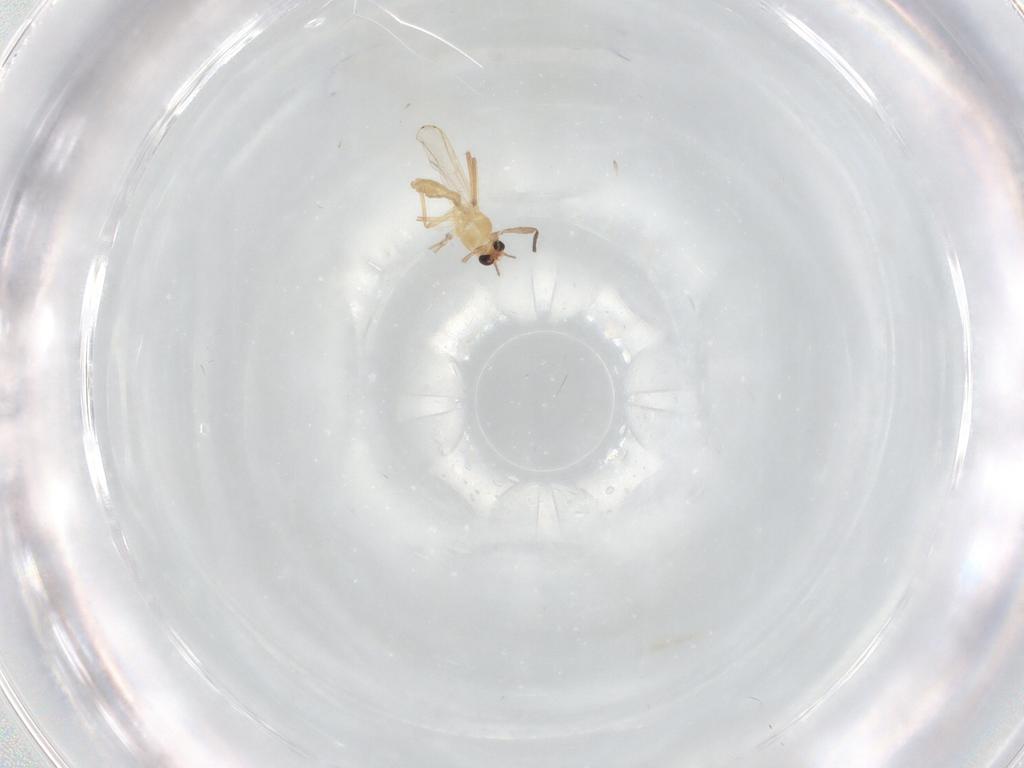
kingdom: Animalia
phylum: Arthropoda
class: Insecta
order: Diptera
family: Chironomidae
